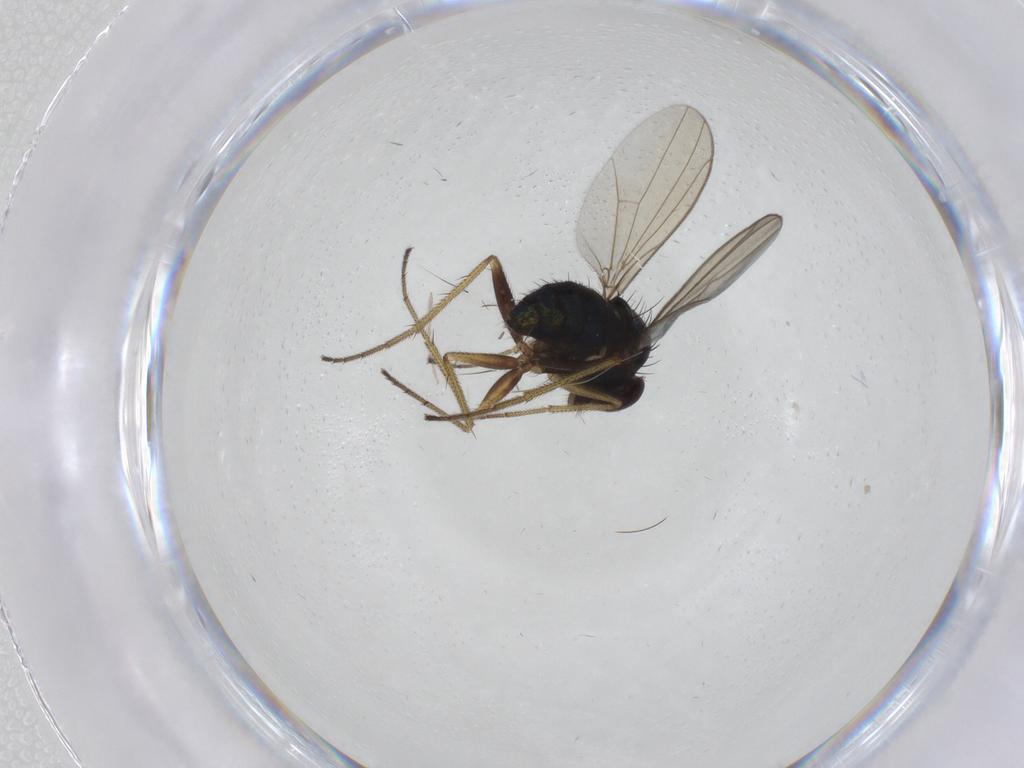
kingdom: Animalia
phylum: Arthropoda
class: Insecta
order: Diptera
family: Dolichopodidae
